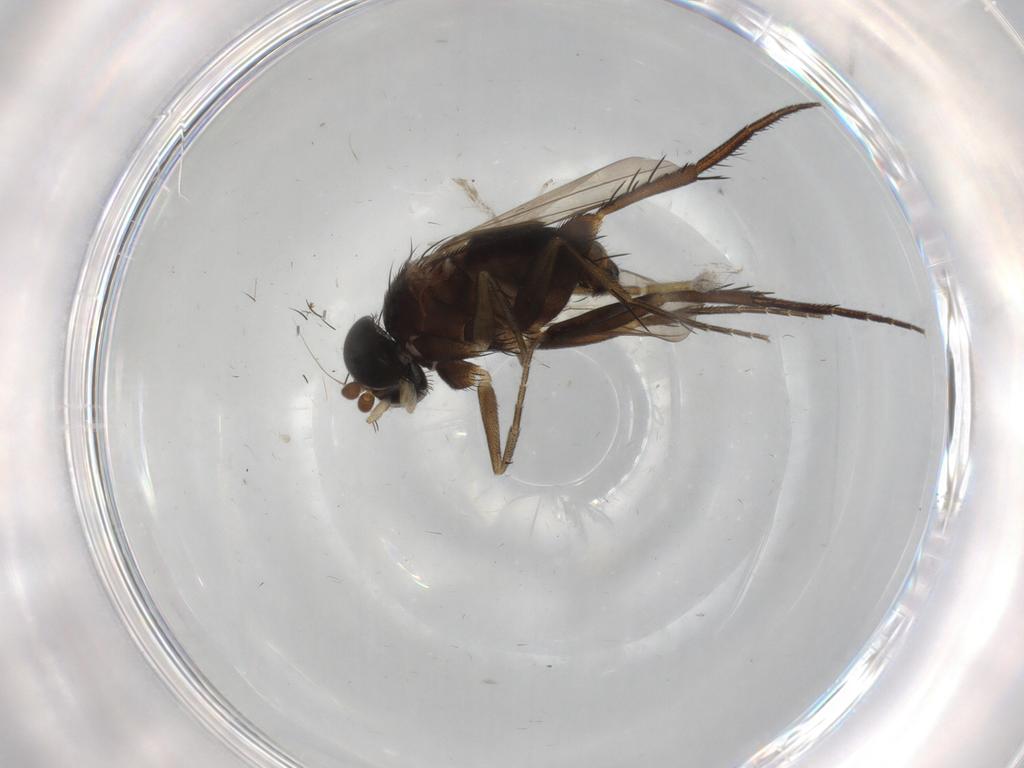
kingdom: Animalia
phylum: Arthropoda
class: Insecta
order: Diptera
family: Phoridae
